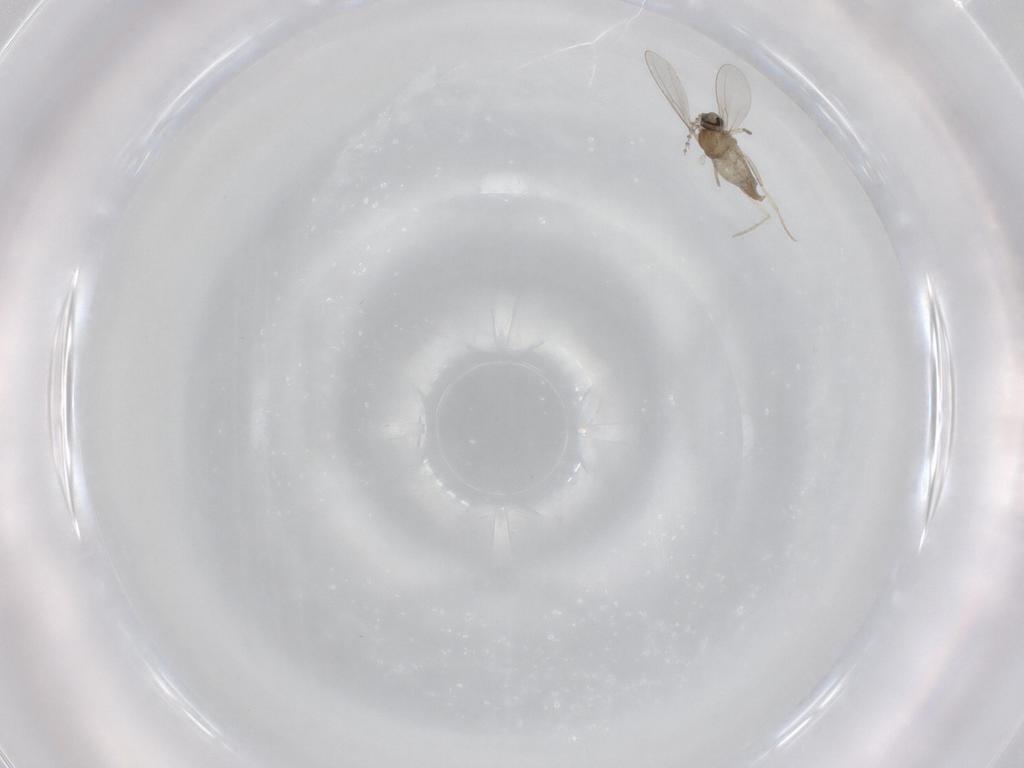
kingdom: Animalia
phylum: Arthropoda
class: Insecta
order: Diptera
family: Cecidomyiidae
